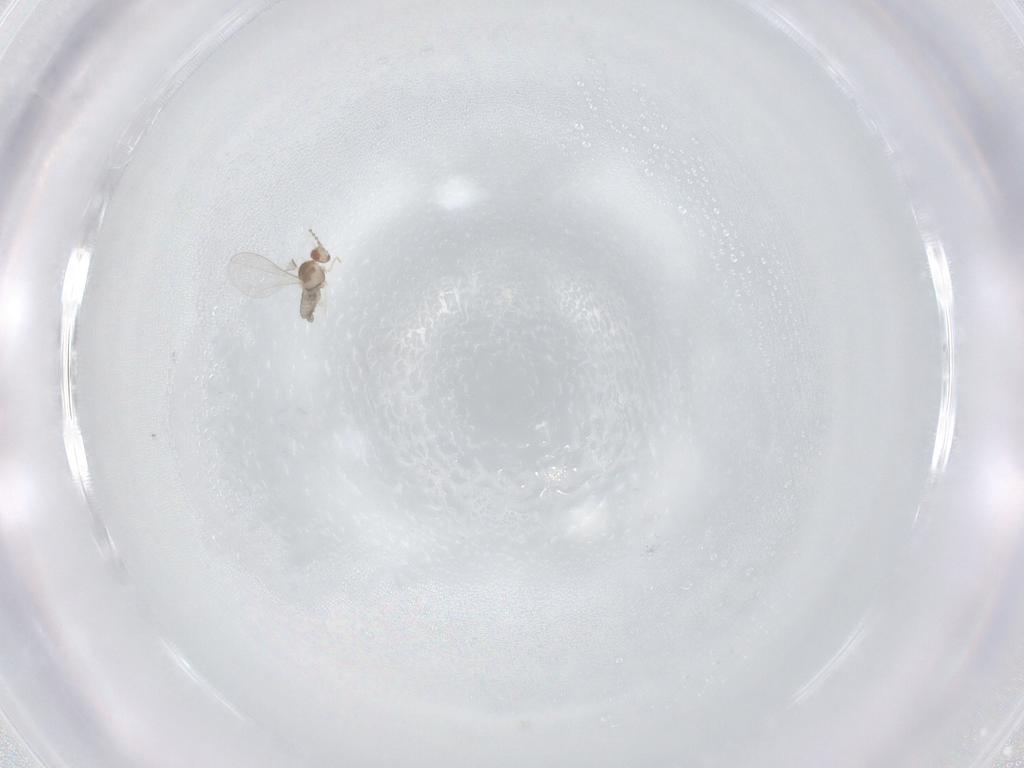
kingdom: Animalia
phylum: Arthropoda
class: Insecta
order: Diptera
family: Cecidomyiidae
